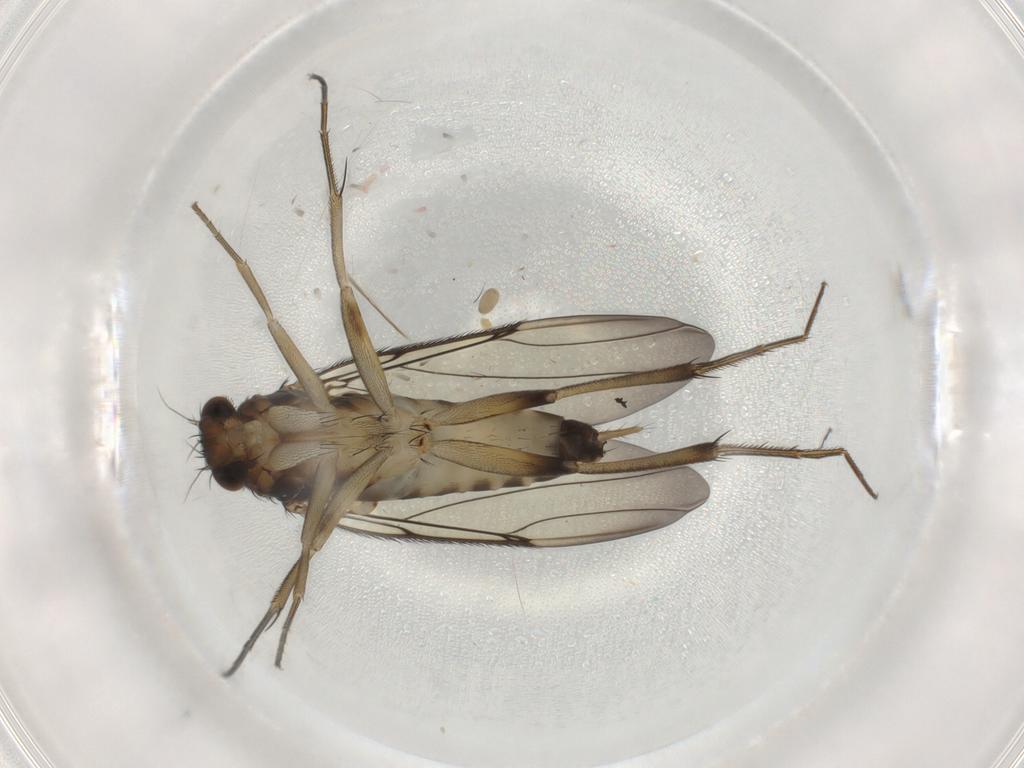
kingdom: Animalia
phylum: Arthropoda
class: Insecta
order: Diptera
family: Phoridae
